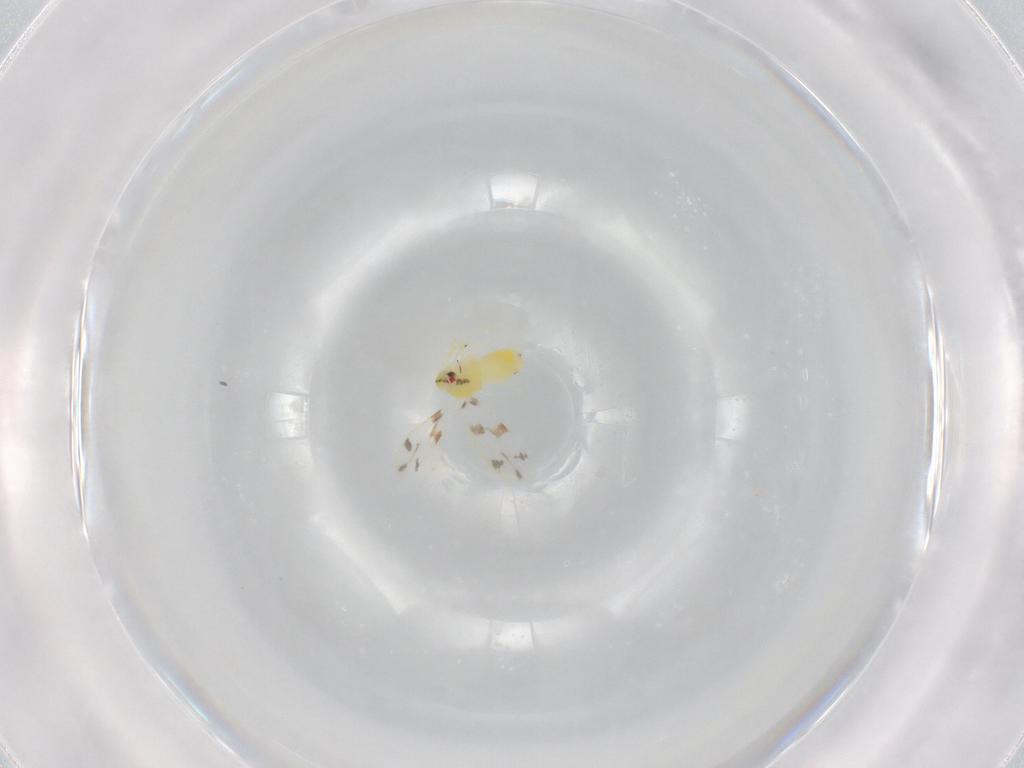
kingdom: Animalia
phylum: Arthropoda
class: Insecta
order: Hemiptera
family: Aleyrodidae
